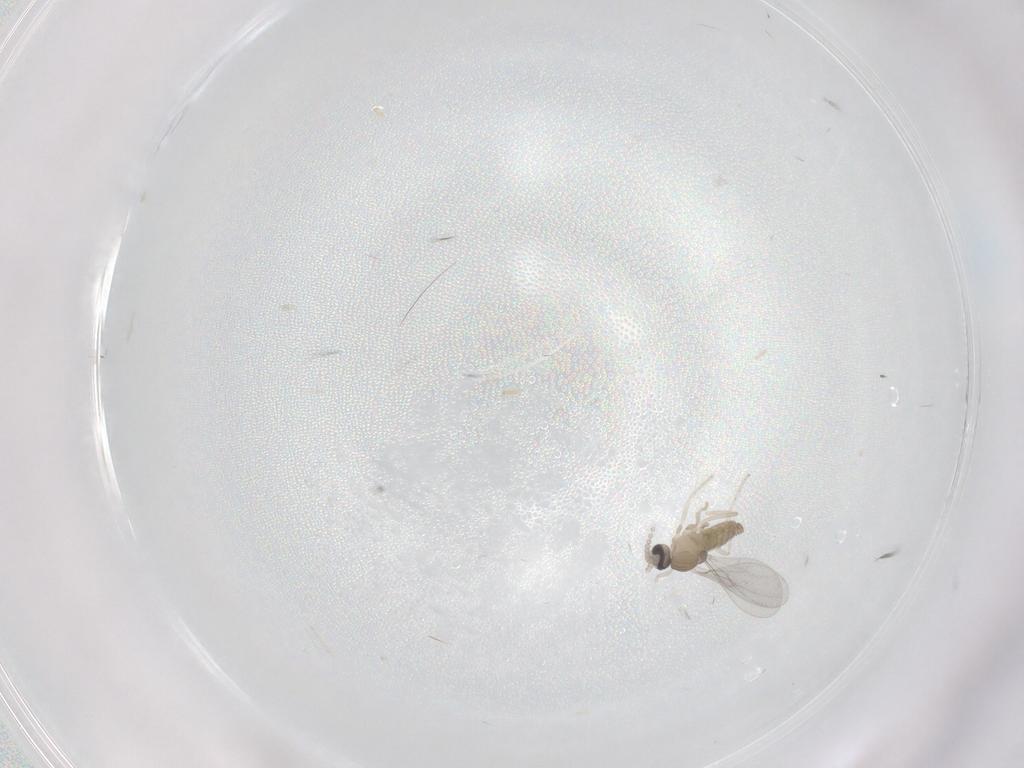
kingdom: Animalia
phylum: Arthropoda
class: Insecta
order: Diptera
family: Cecidomyiidae
